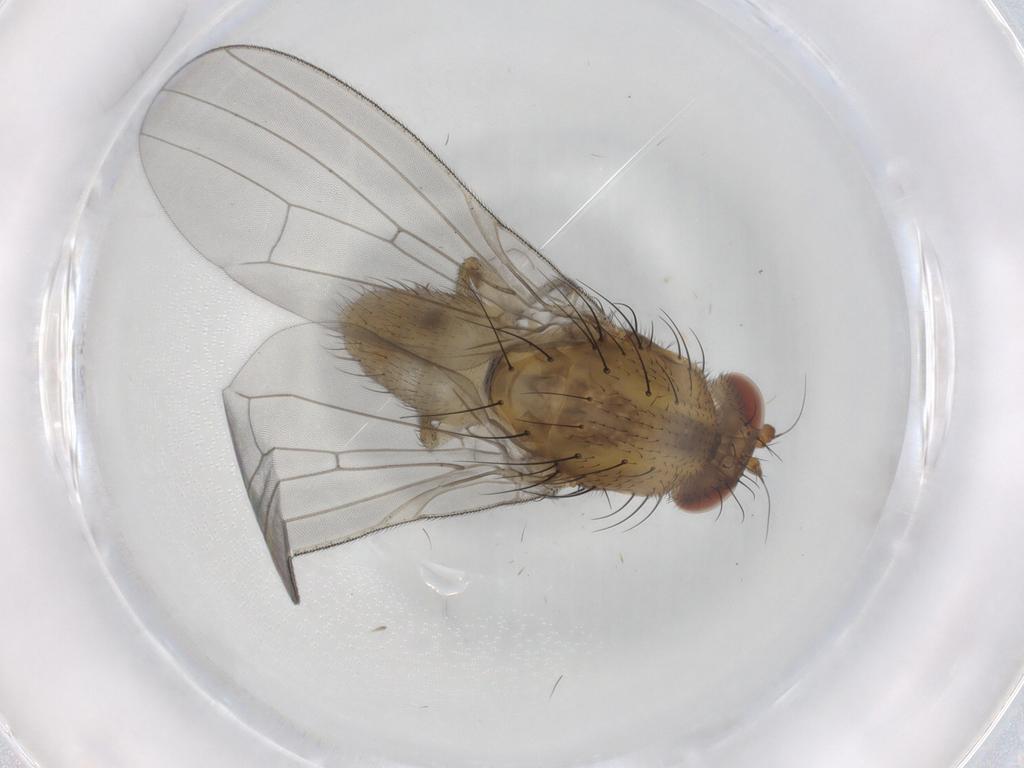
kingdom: Animalia
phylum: Arthropoda
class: Insecta
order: Diptera
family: Lauxaniidae
